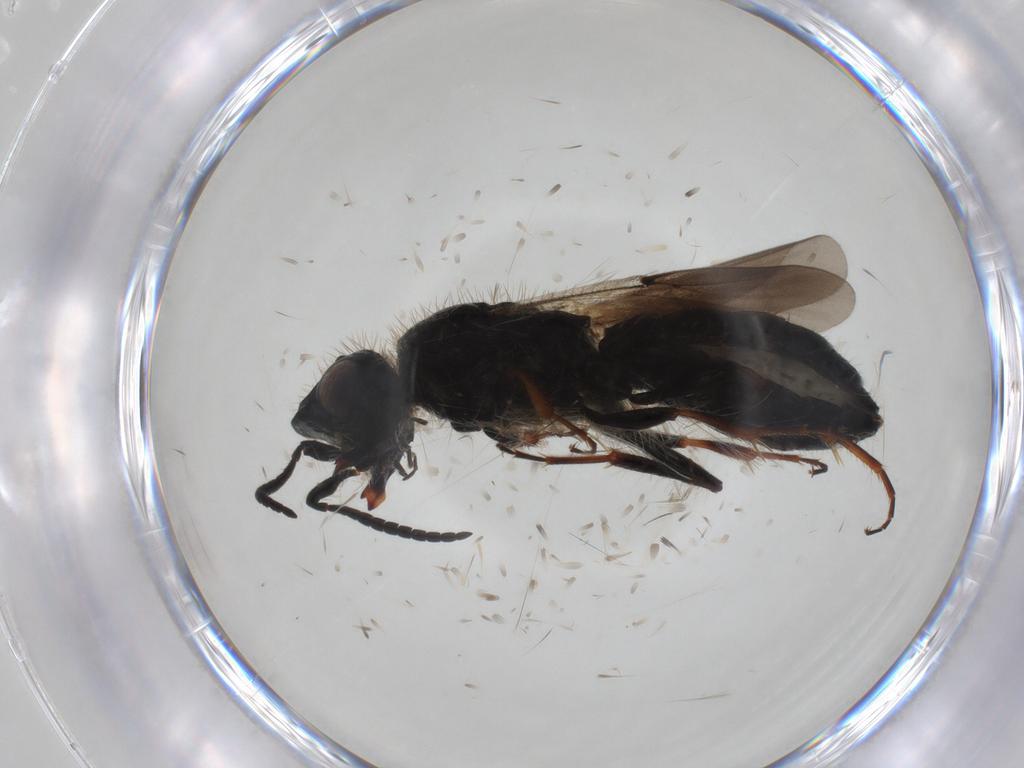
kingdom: Animalia
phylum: Arthropoda
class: Insecta
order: Hymenoptera
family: Scelionidae
